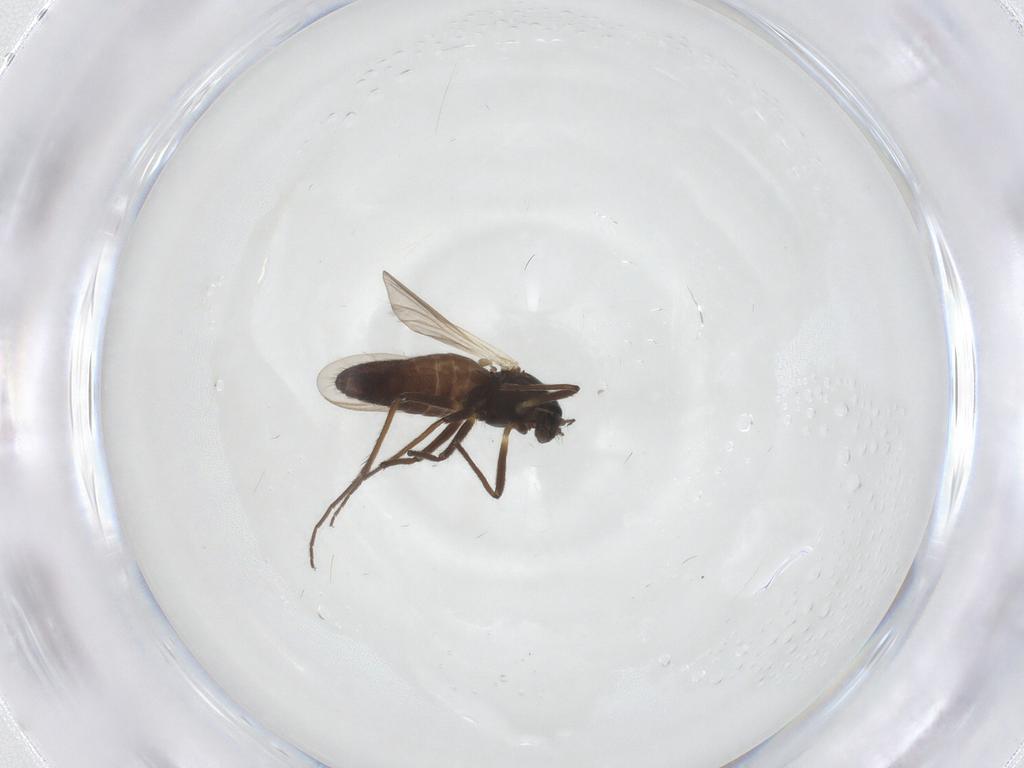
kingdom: Animalia
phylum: Arthropoda
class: Insecta
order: Diptera
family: Chironomidae
